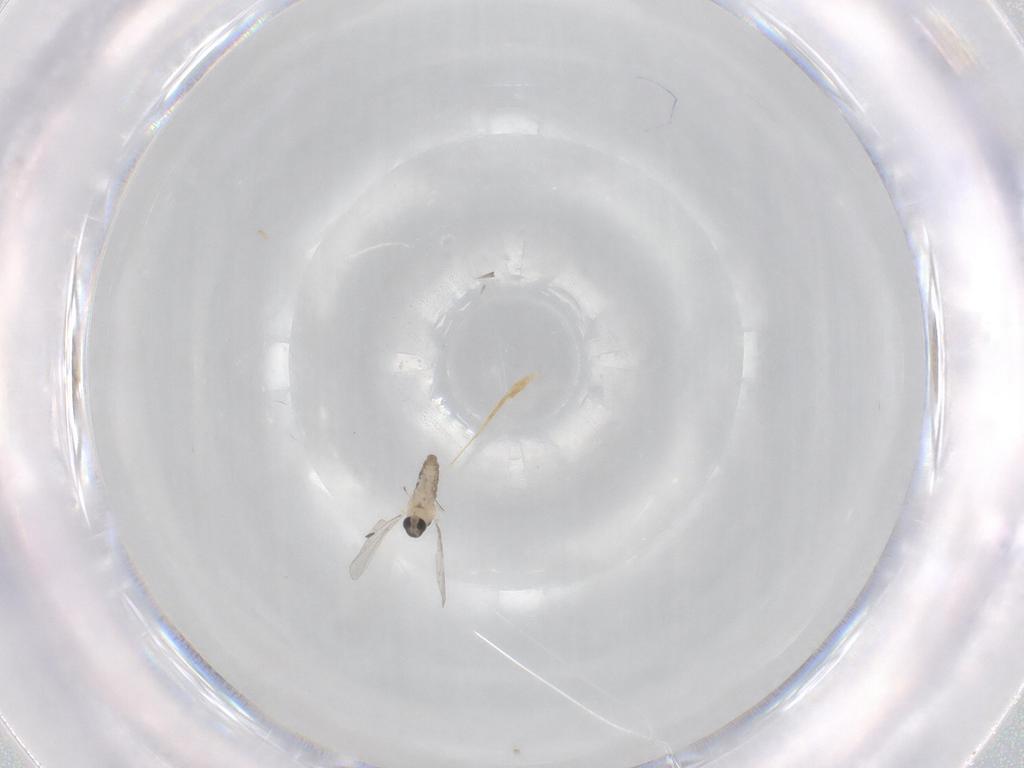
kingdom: Animalia
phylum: Arthropoda
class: Insecta
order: Diptera
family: Cecidomyiidae
